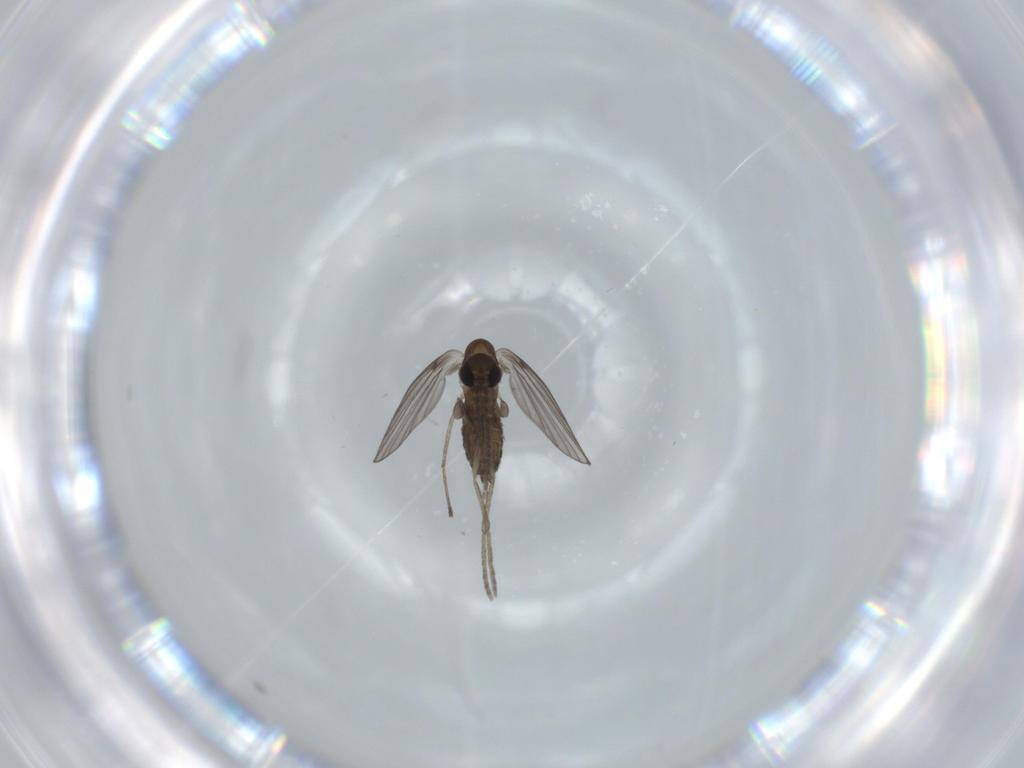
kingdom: Animalia
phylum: Arthropoda
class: Insecta
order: Diptera
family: Psychodidae
